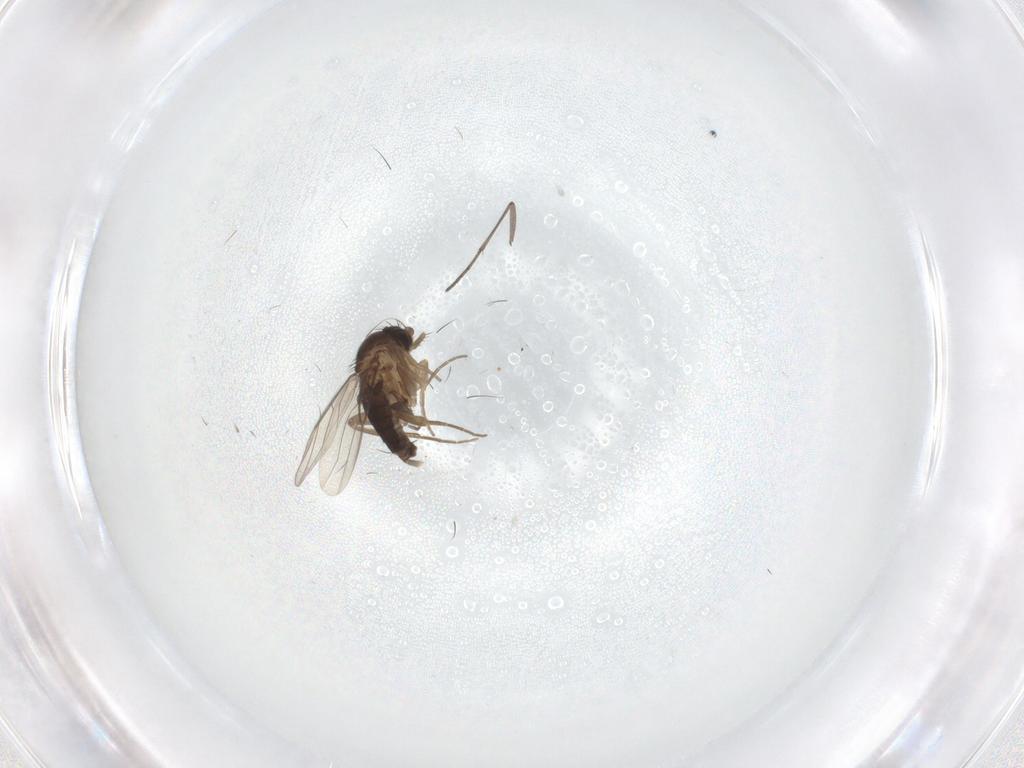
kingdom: Animalia
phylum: Arthropoda
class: Insecta
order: Diptera
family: Phoridae
